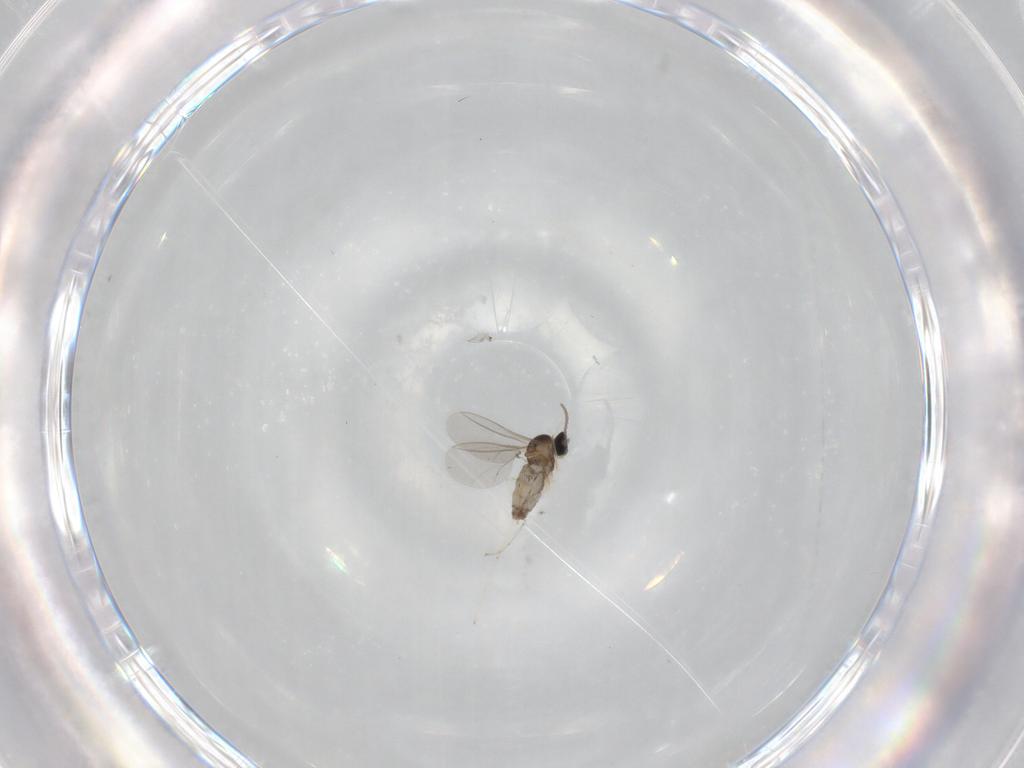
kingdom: Animalia
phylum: Arthropoda
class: Insecta
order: Diptera
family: Cecidomyiidae
